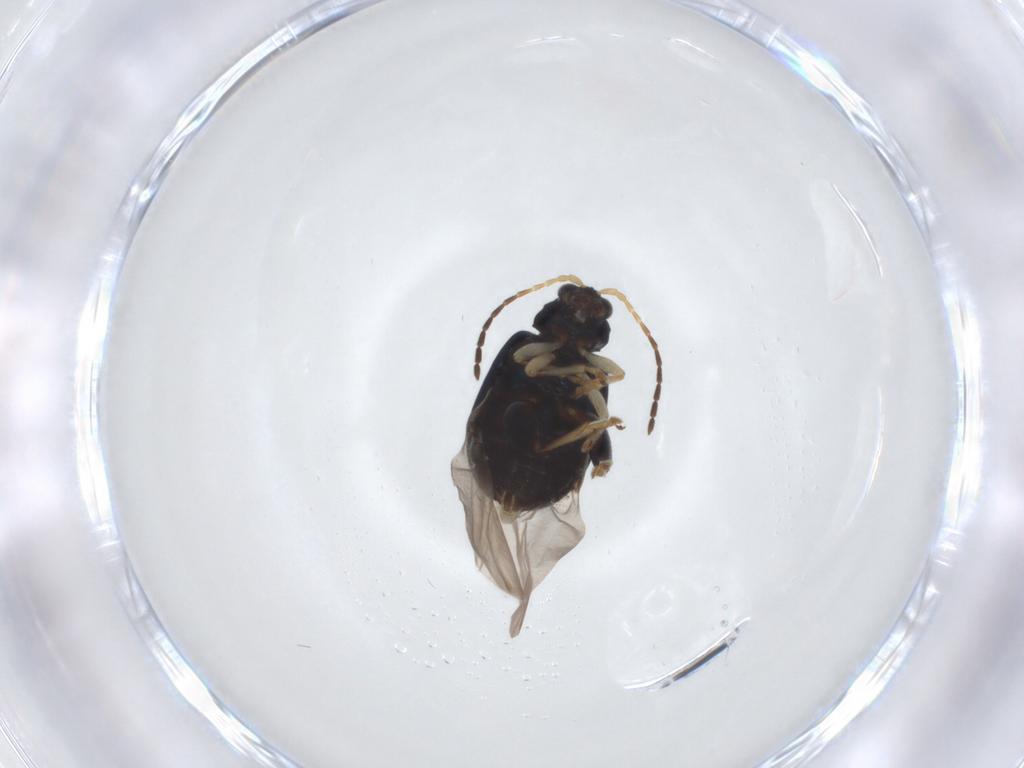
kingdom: Animalia
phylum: Arthropoda
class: Insecta
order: Coleoptera
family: Chrysomelidae
